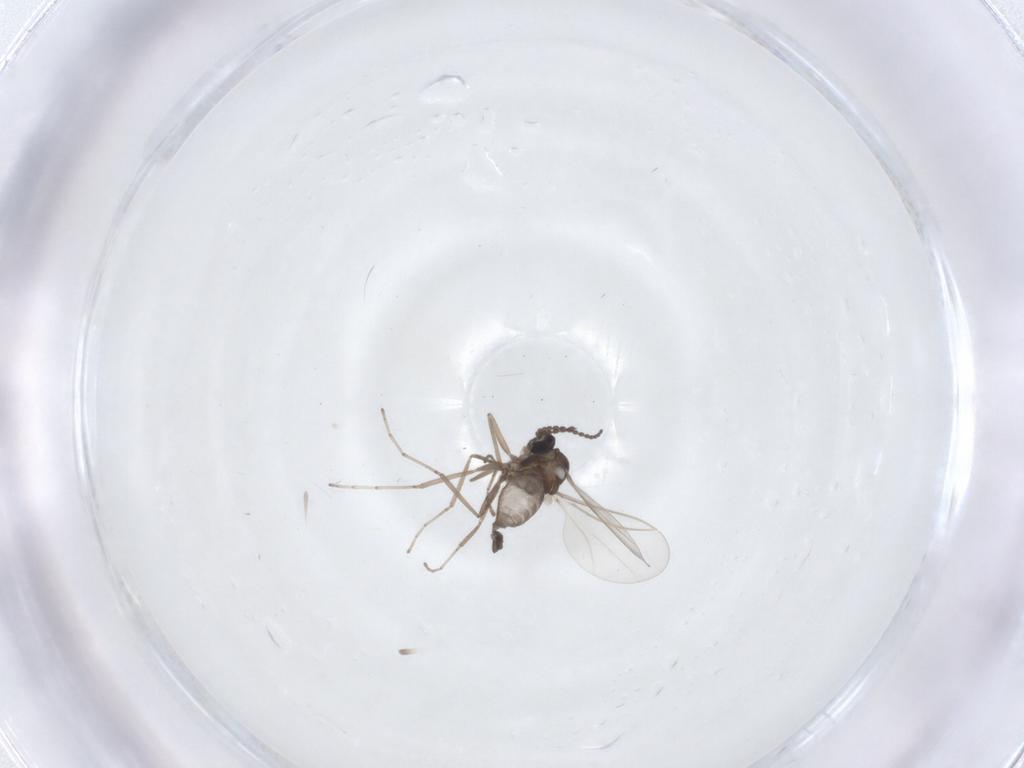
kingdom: Animalia
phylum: Arthropoda
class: Insecta
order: Diptera
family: Cecidomyiidae
